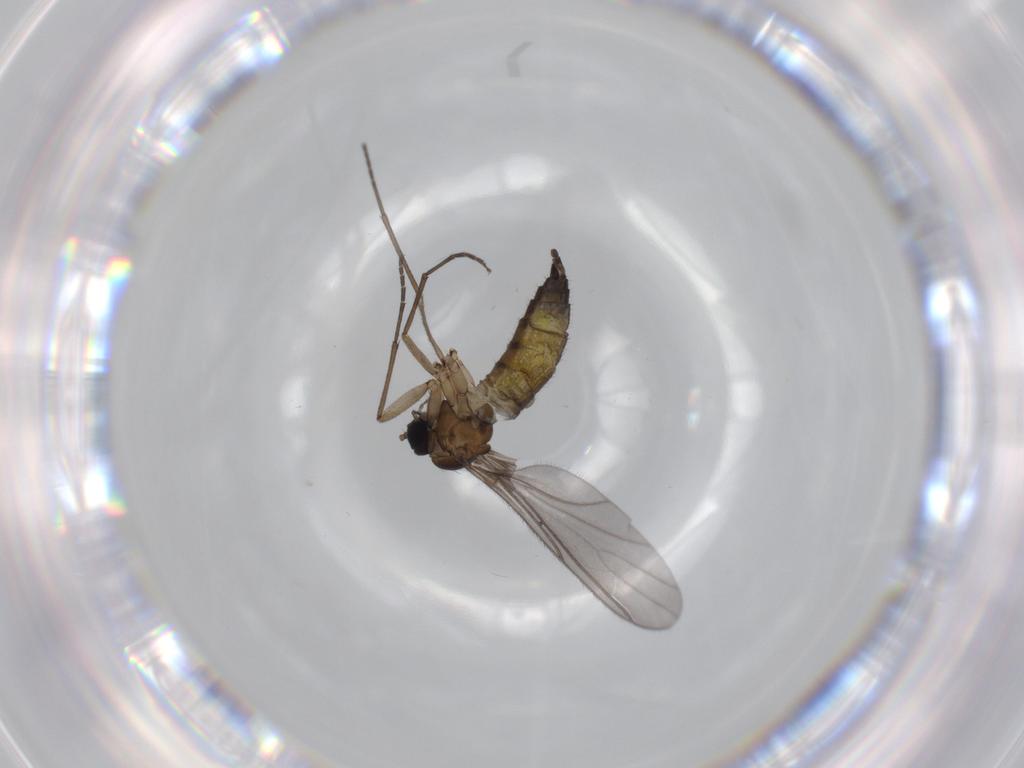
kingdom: Animalia
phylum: Arthropoda
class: Insecta
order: Diptera
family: Sciaridae
